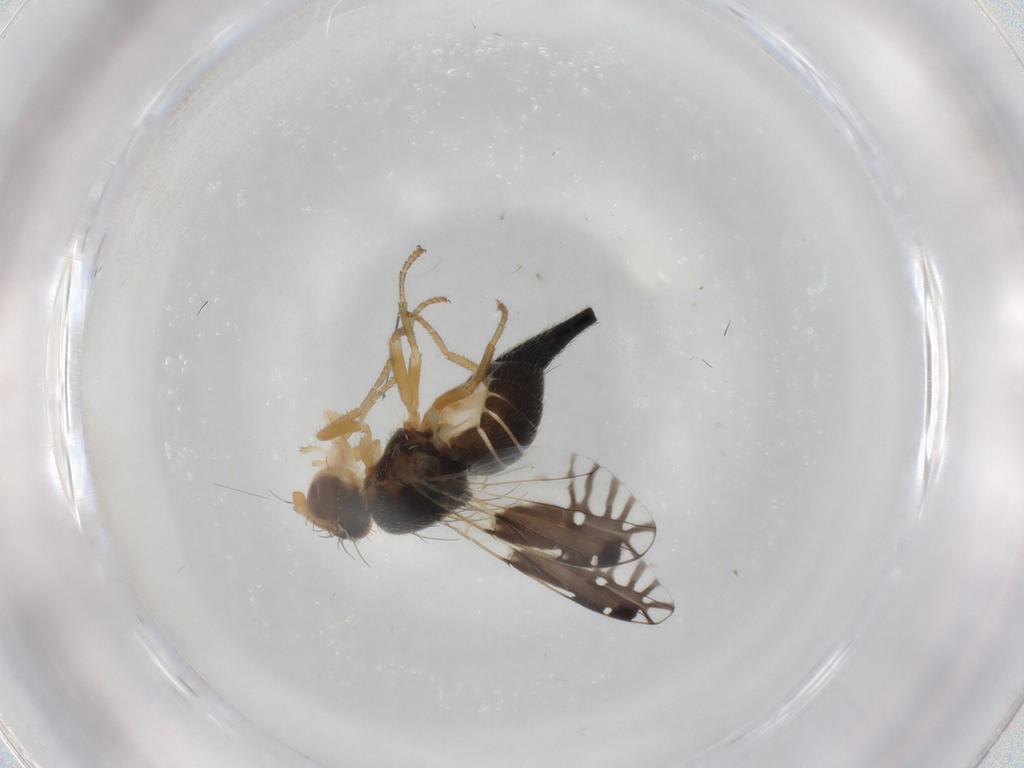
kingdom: Animalia
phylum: Arthropoda
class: Insecta
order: Diptera
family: Tephritidae
